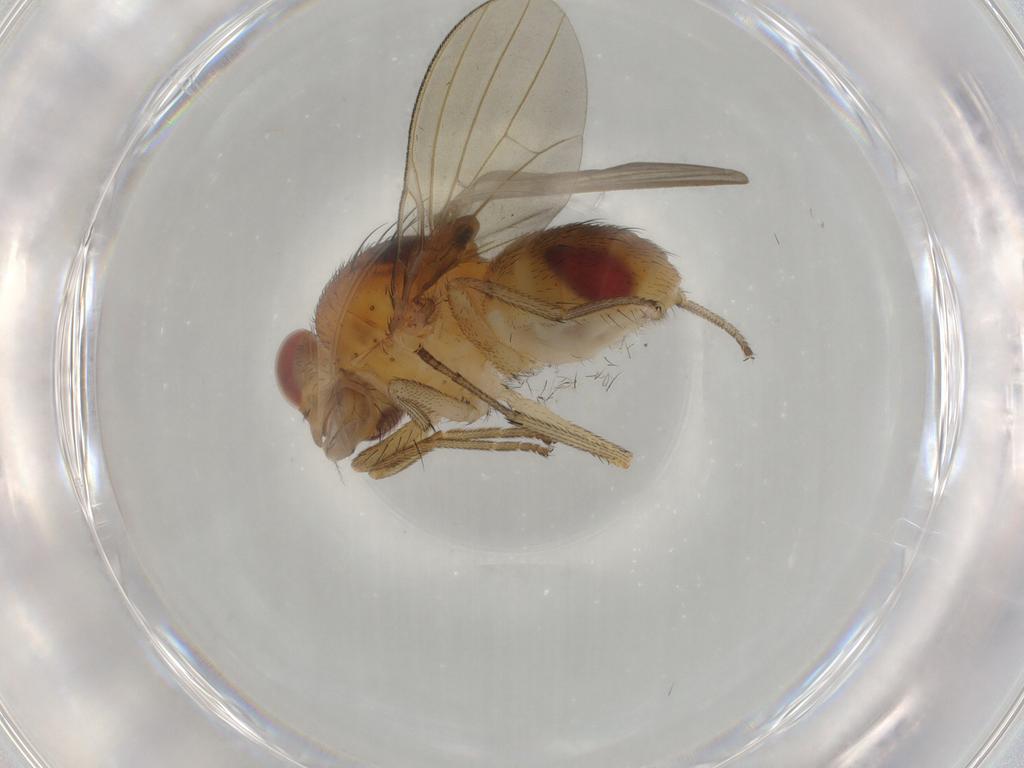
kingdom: Animalia
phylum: Arthropoda
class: Insecta
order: Diptera
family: Lauxaniidae
